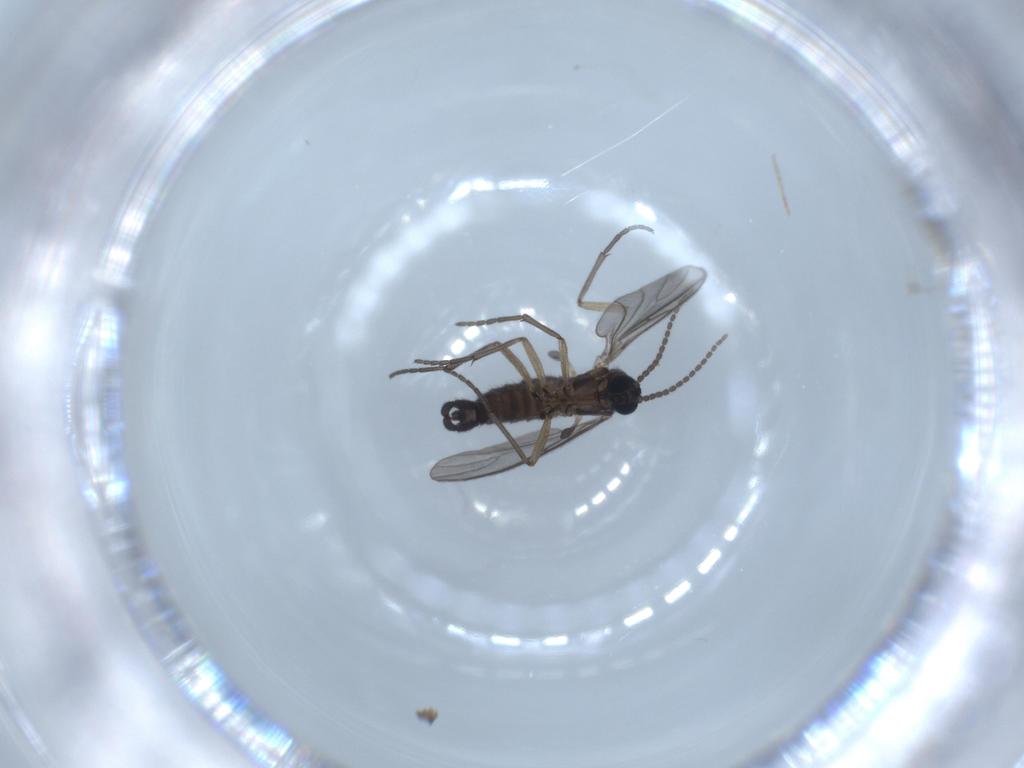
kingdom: Animalia
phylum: Arthropoda
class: Insecta
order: Diptera
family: Sciaridae
